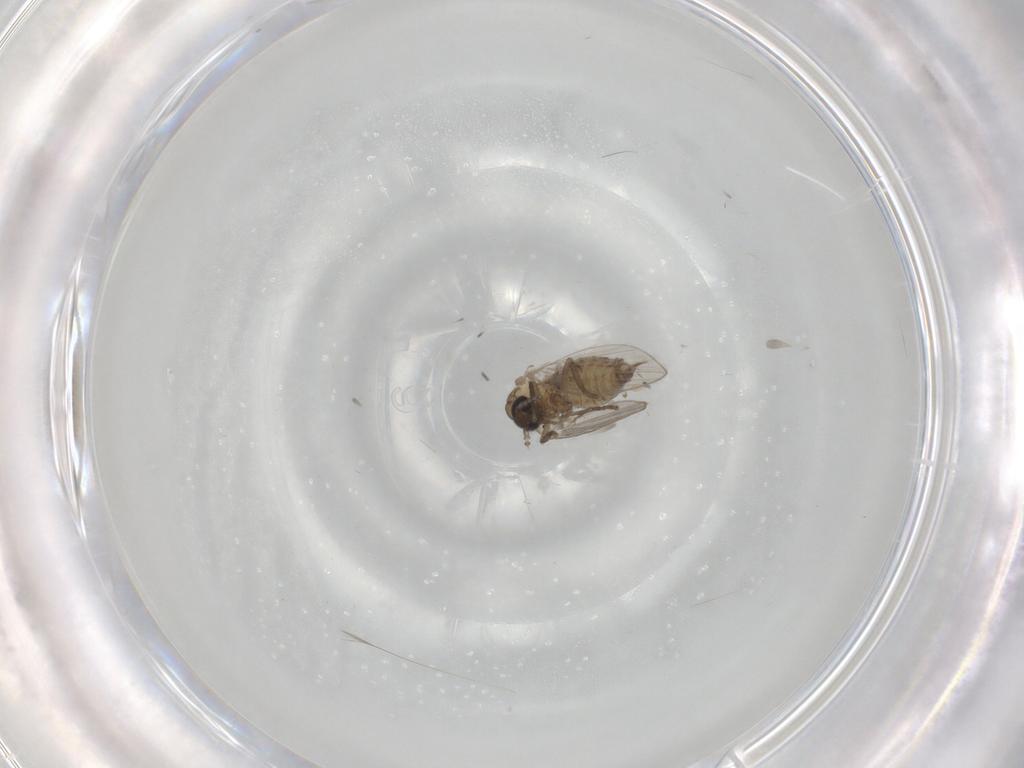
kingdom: Animalia
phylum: Arthropoda
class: Insecta
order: Diptera
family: Psychodidae
